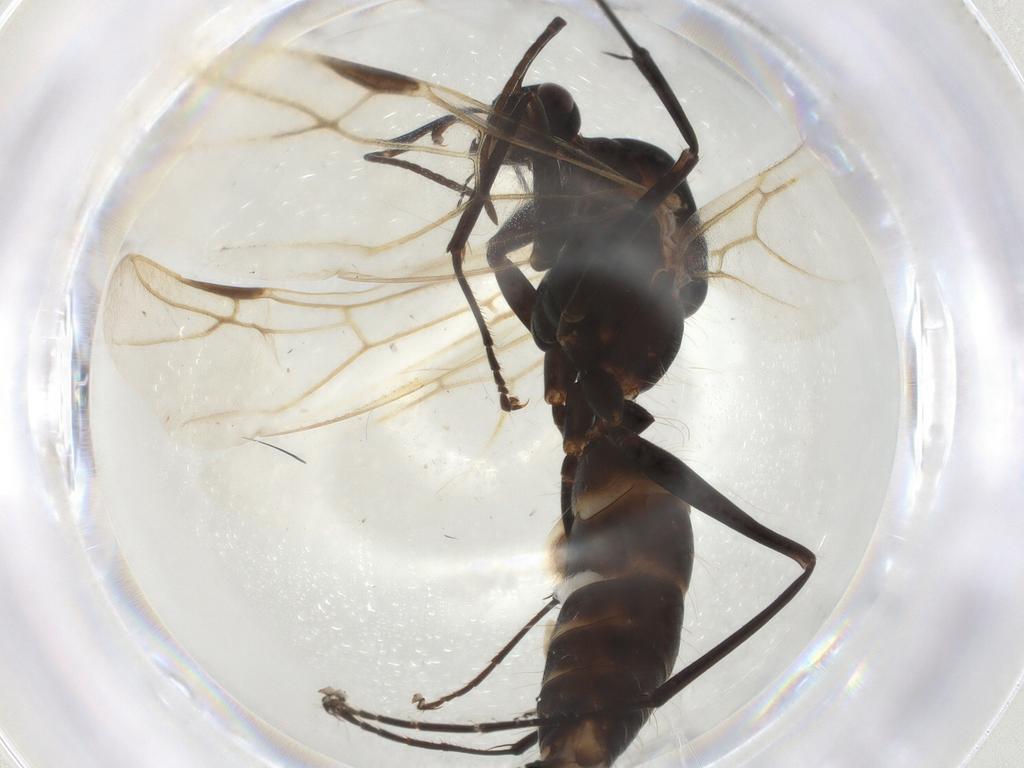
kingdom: Animalia
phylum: Arthropoda
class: Insecta
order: Hymenoptera
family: Formicidae
